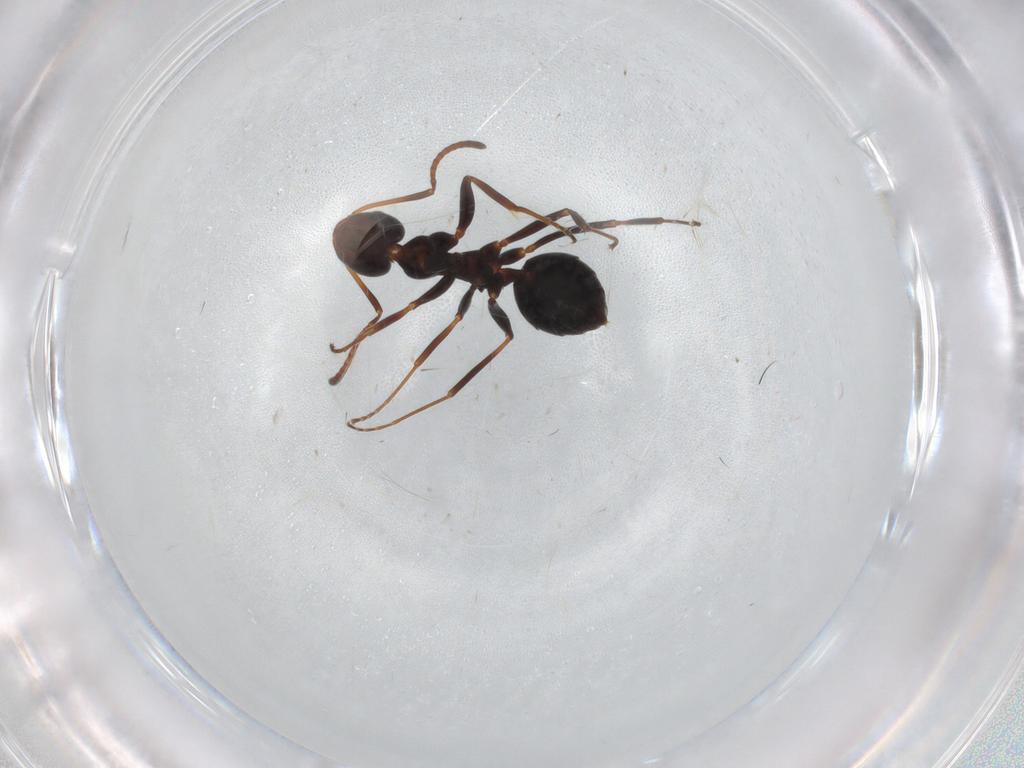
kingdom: Animalia
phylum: Arthropoda
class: Insecta
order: Hymenoptera
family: Formicidae
